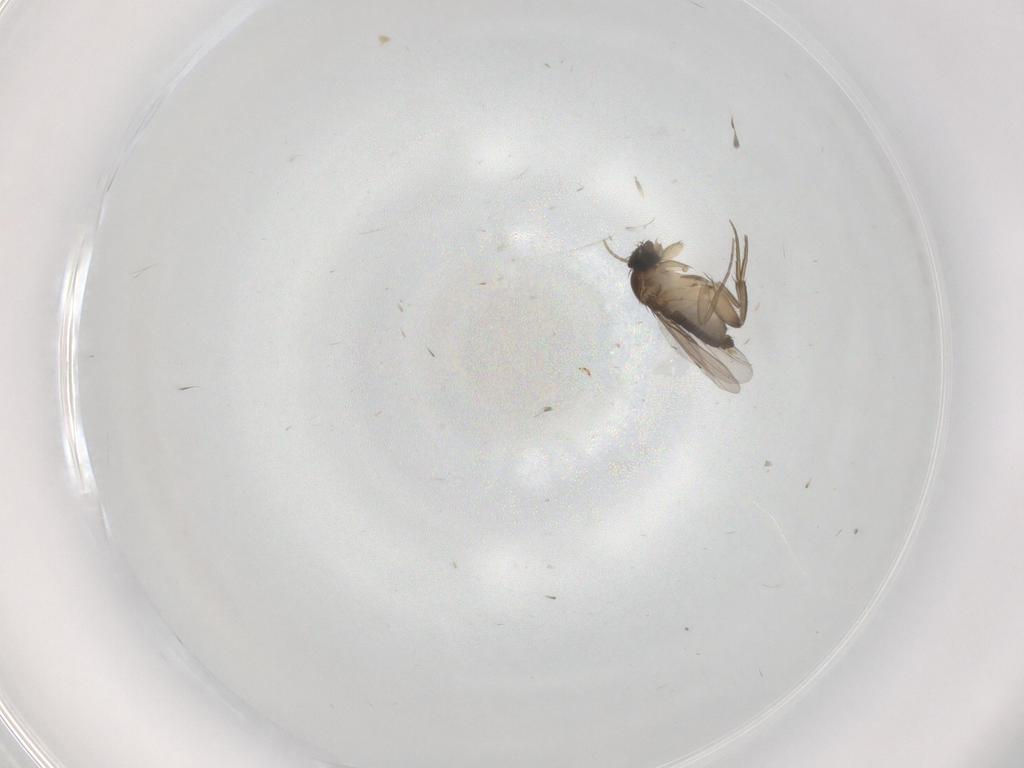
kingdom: Animalia
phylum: Arthropoda
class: Insecta
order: Diptera
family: Phoridae
